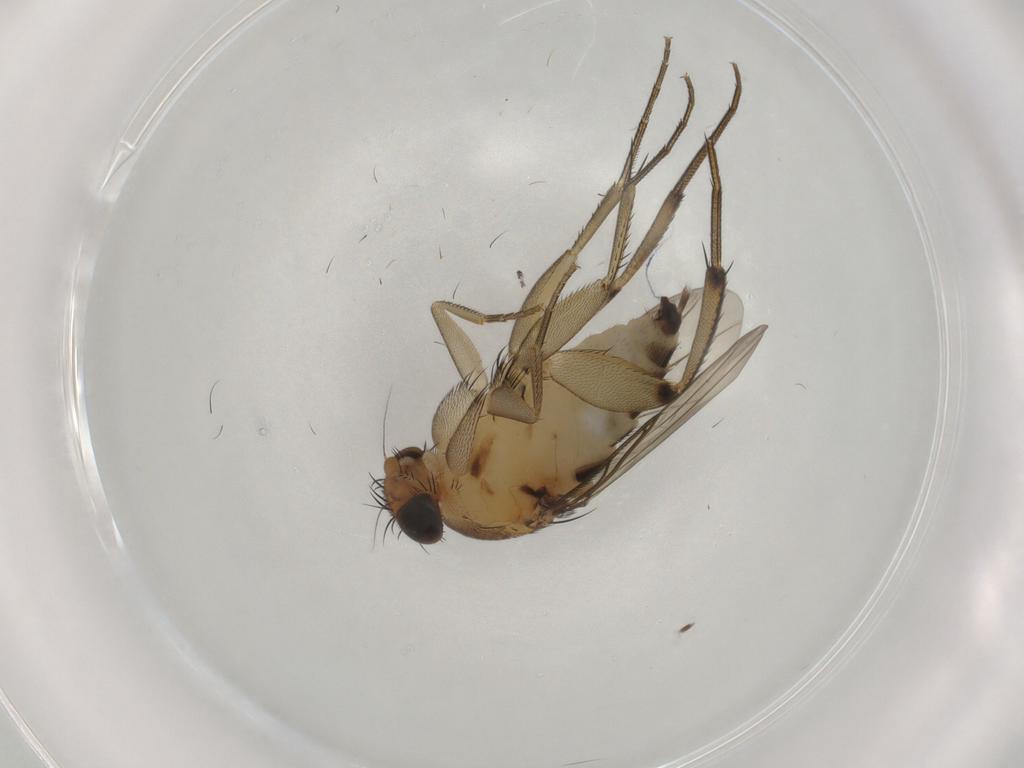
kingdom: Animalia
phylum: Arthropoda
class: Insecta
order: Diptera
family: Phoridae
